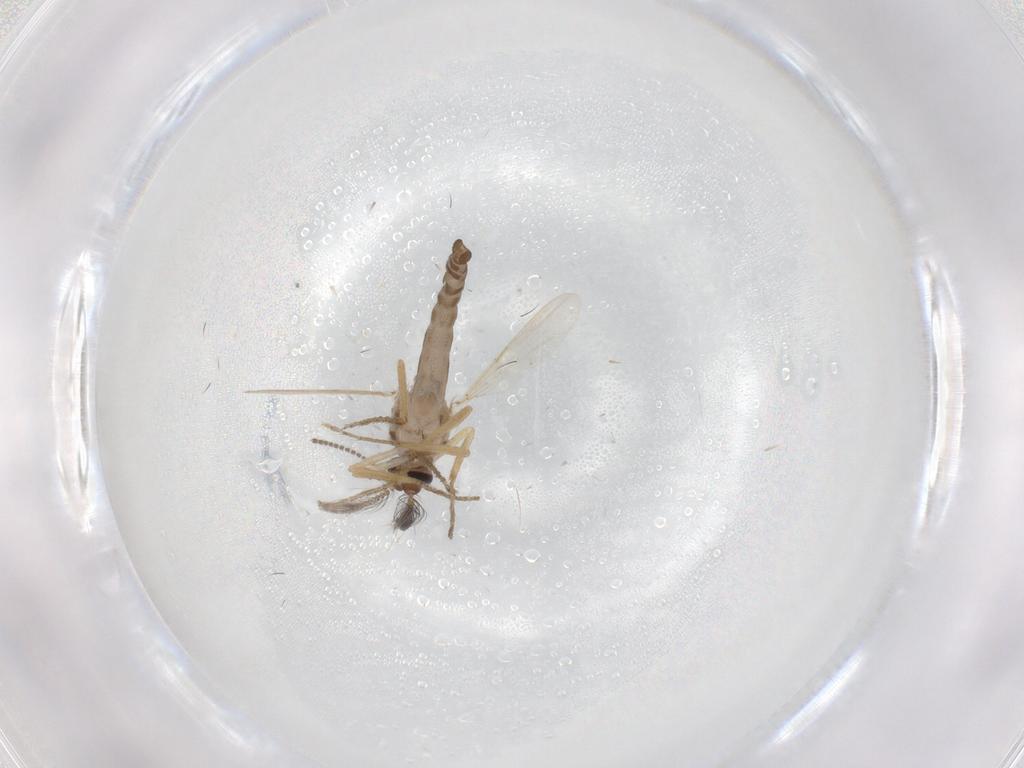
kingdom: Animalia
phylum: Arthropoda
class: Insecta
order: Diptera
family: Ceratopogonidae
